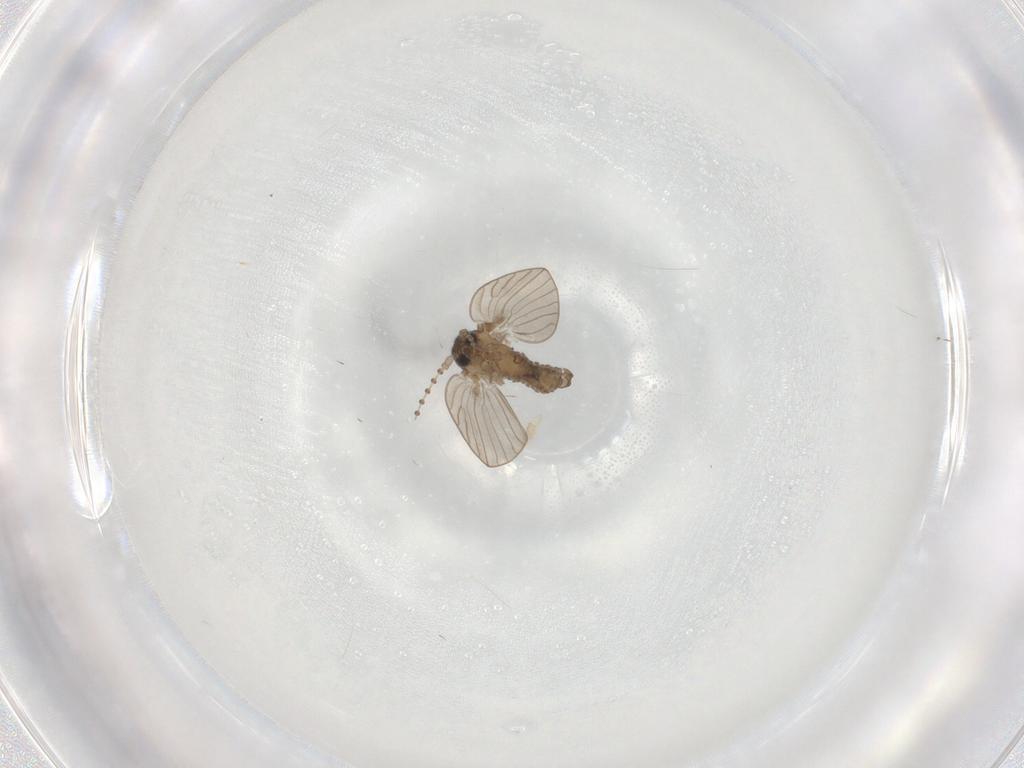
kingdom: Animalia
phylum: Arthropoda
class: Insecta
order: Diptera
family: Psychodidae
